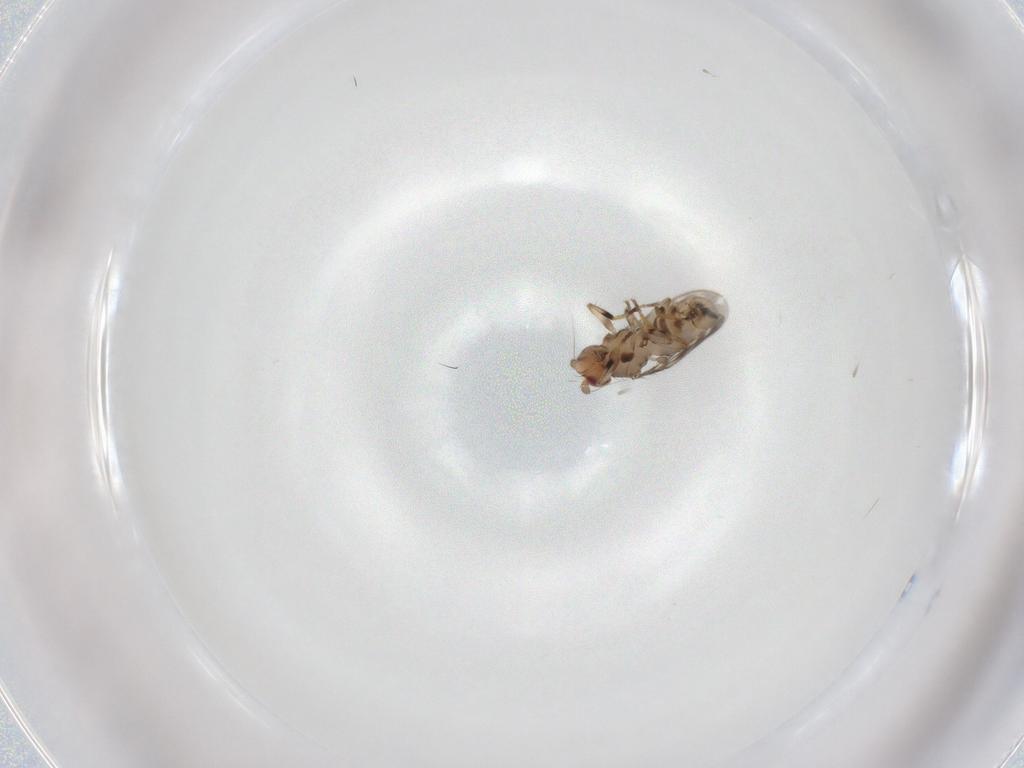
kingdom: Animalia
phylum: Arthropoda
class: Insecta
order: Diptera
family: Sphaeroceridae
